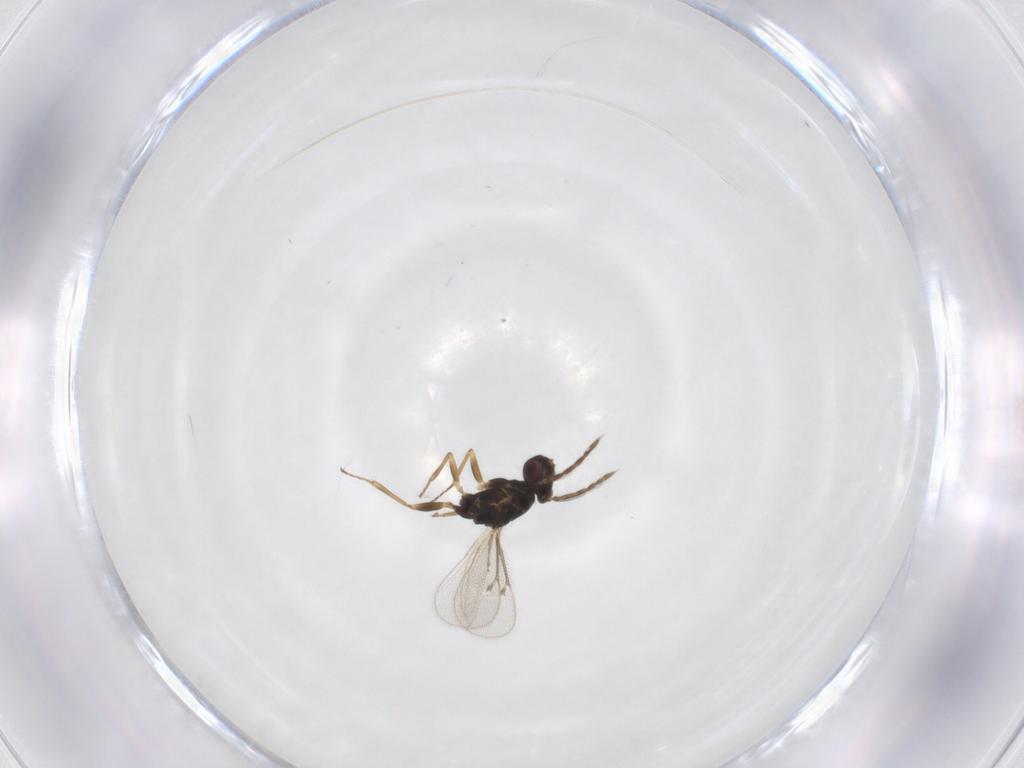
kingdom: Animalia
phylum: Arthropoda
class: Insecta
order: Hymenoptera
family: Eulophidae
